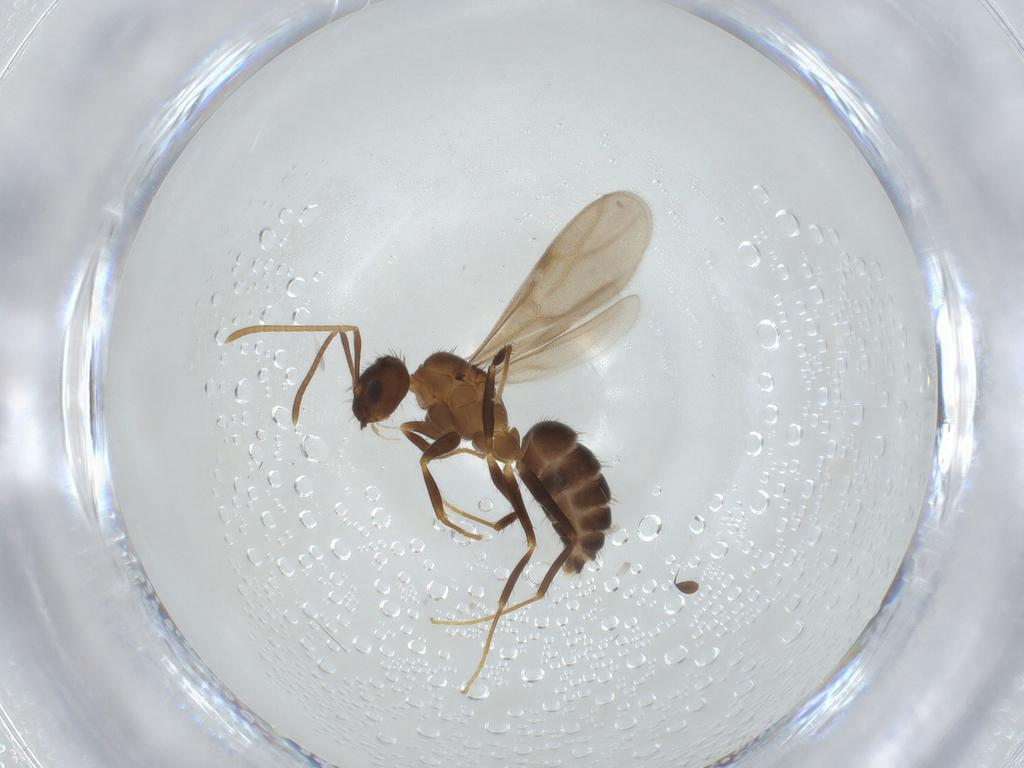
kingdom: Animalia
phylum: Arthropoda
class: Insecta
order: Hymenoptera
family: Formicidae
